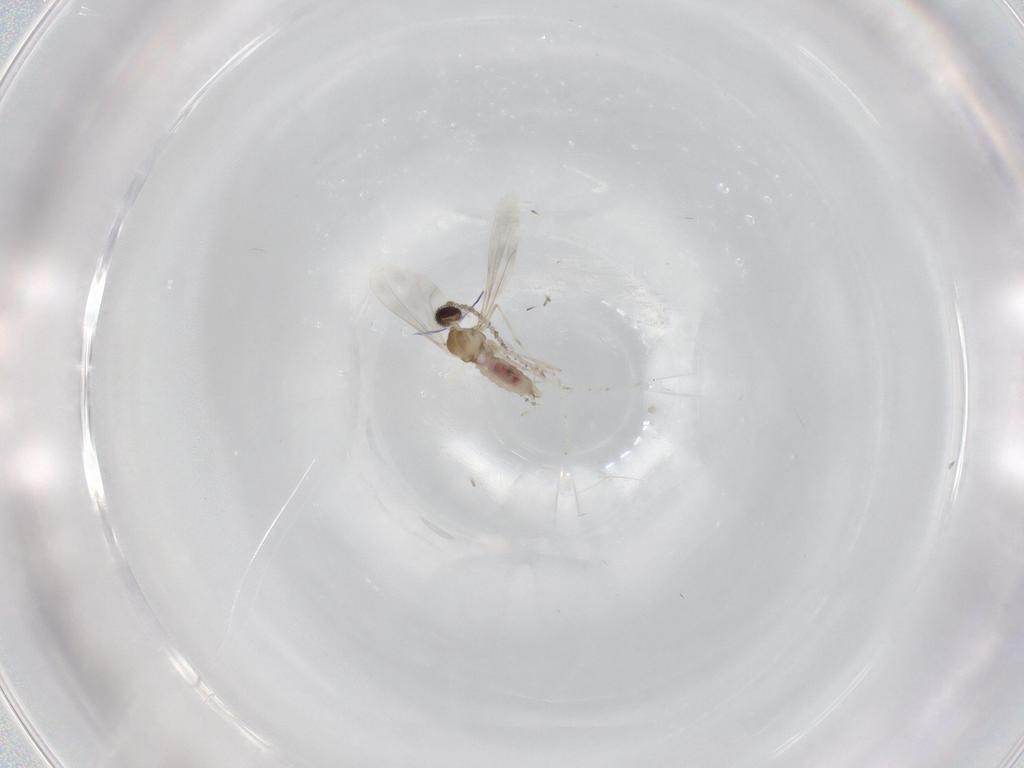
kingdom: Animalia
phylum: Arthropoda
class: Insecta
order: Diptera
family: Cecidomyiidae
